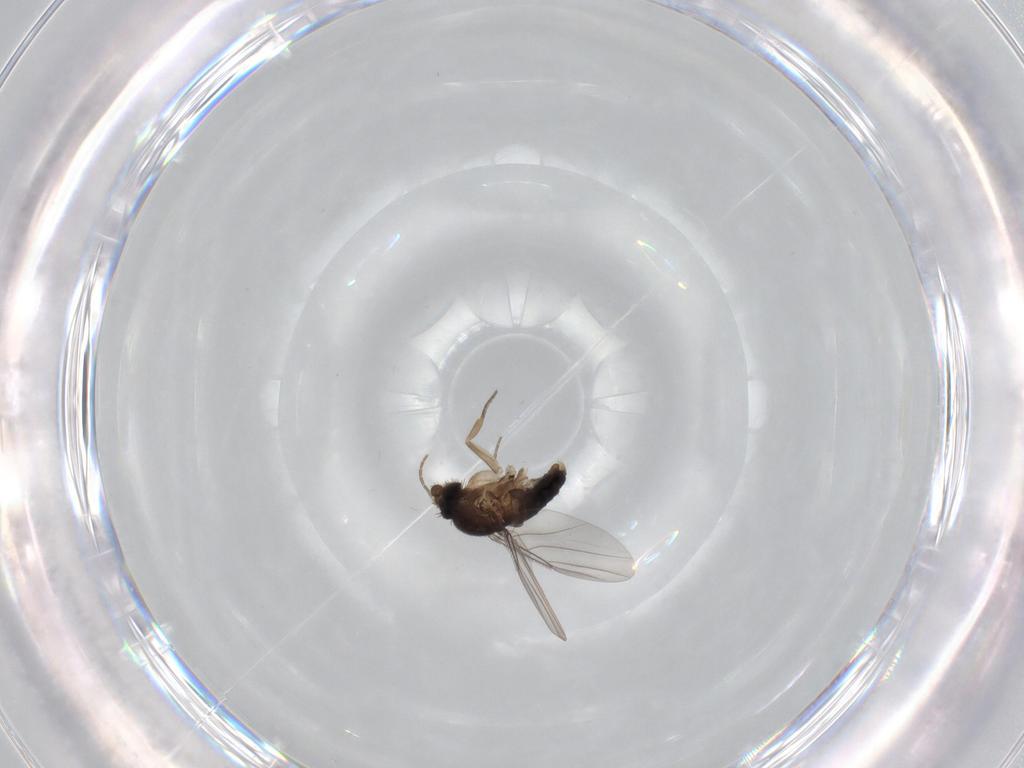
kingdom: Animalia
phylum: Arthropoda
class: Insecta
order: Diptera
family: Phoridae
